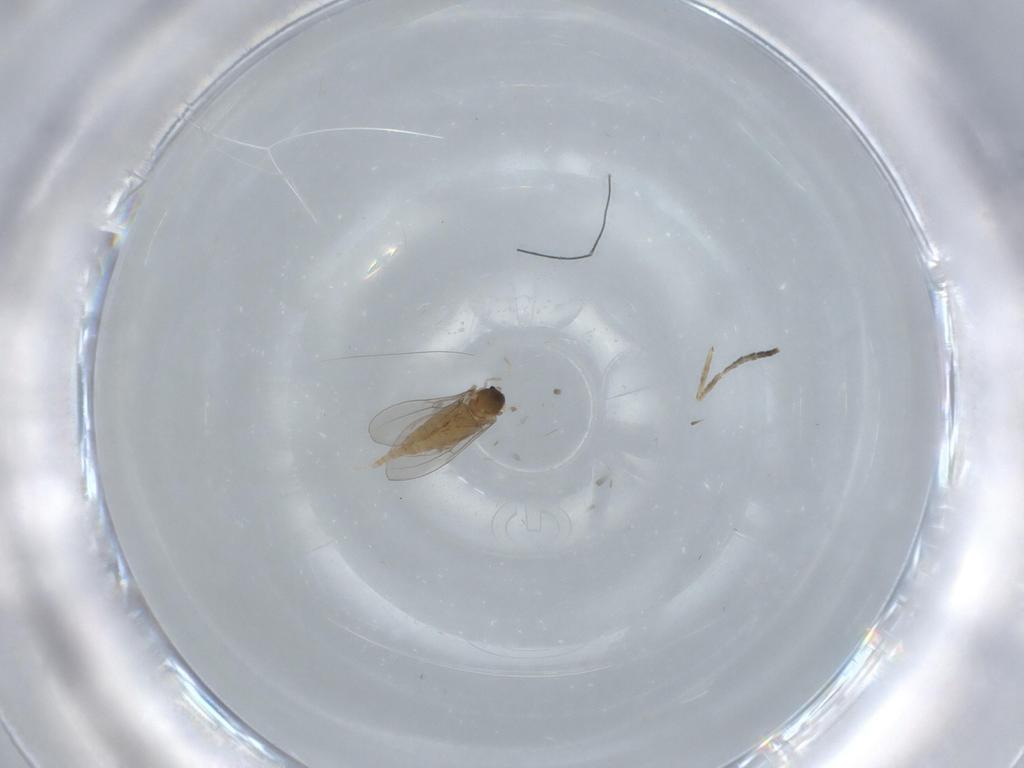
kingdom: Animalia
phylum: Arthropoda
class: Insecta
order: Diptera
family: Cecidomyiidae
